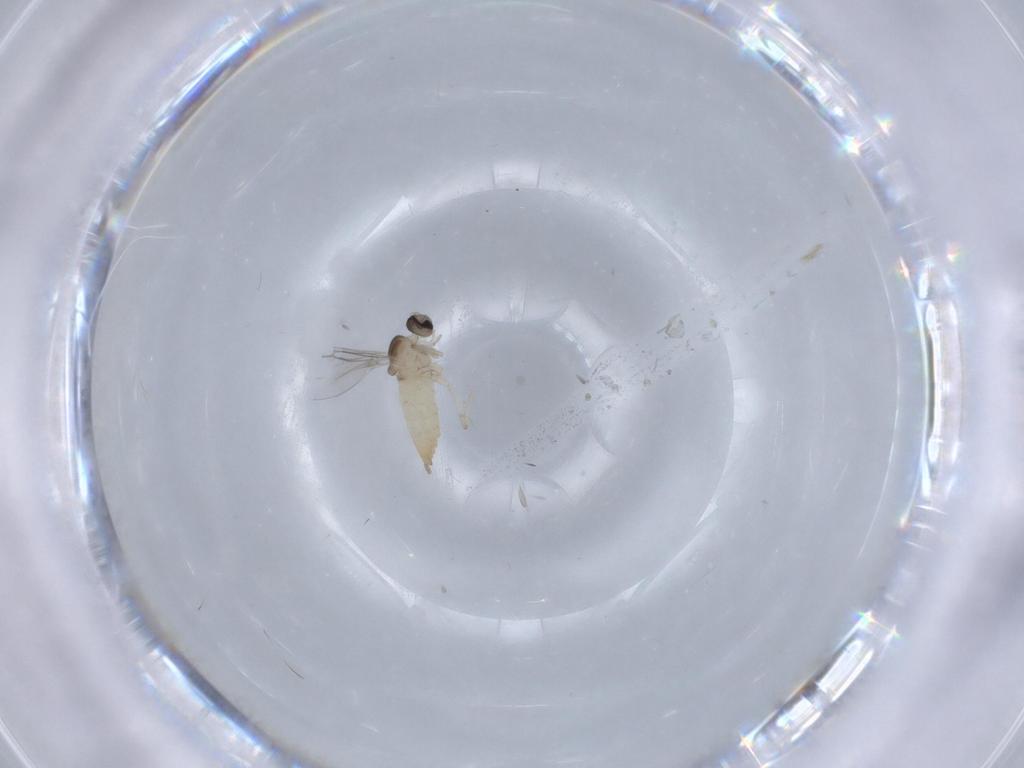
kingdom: Animalia
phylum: Arthropoda
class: Insecta
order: Diptera
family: Cecidomyiidae
